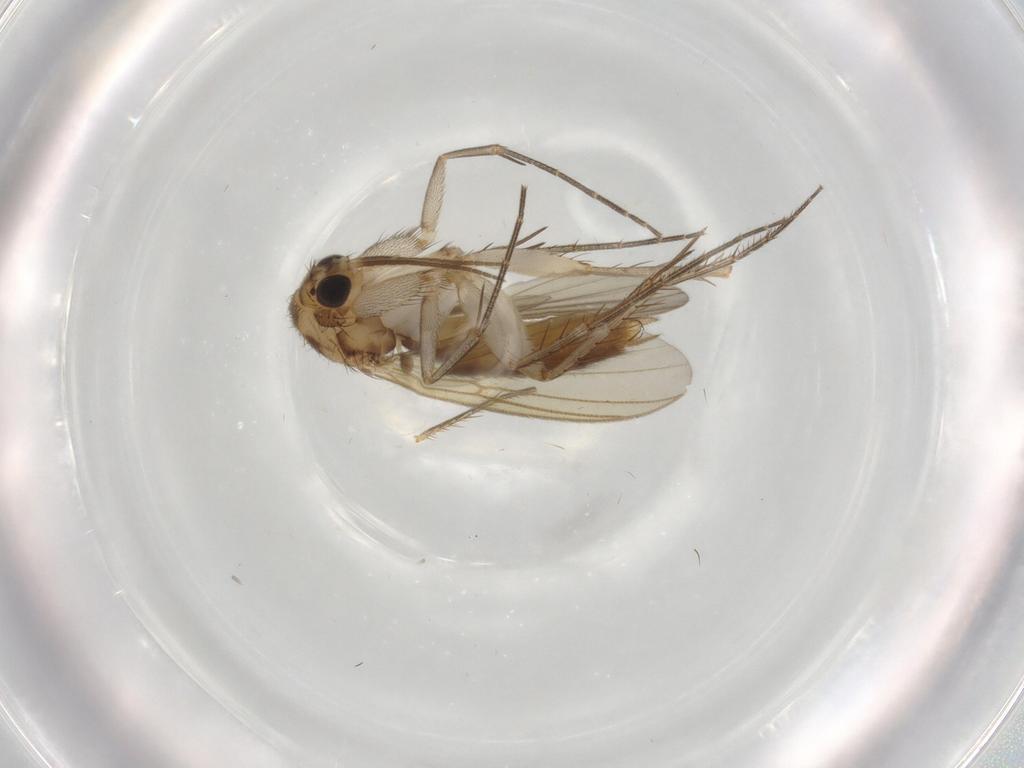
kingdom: Animalia
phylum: Arthropoda
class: Insecta
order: Diptera
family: Mycetophilidae
